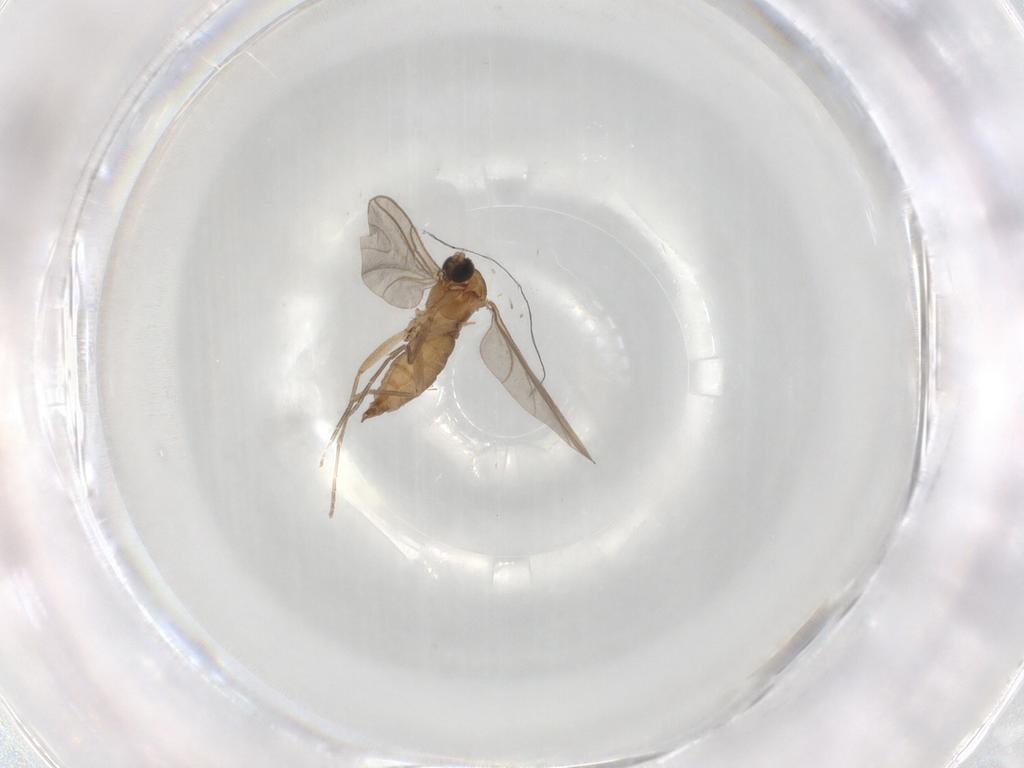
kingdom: Animalia
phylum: Arthropoda
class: Insecta
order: Diptera
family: Sciaridae
